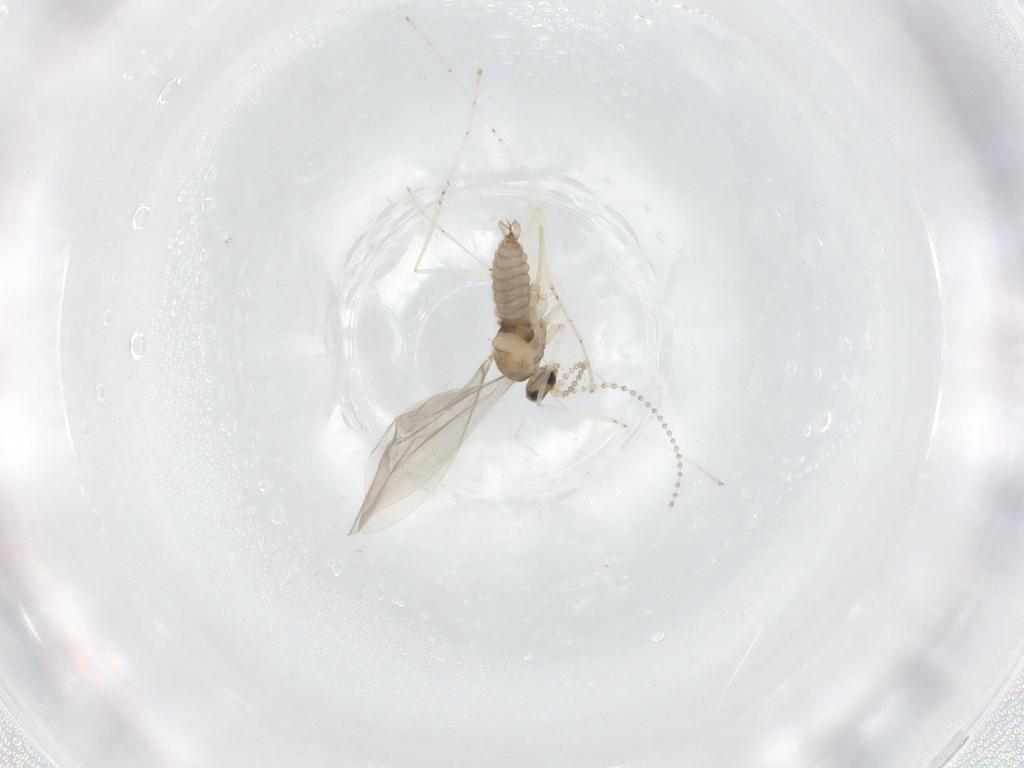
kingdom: Animalia
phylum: Arthropoda
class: Insecta
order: Diptera
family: Cecidomyiidae
